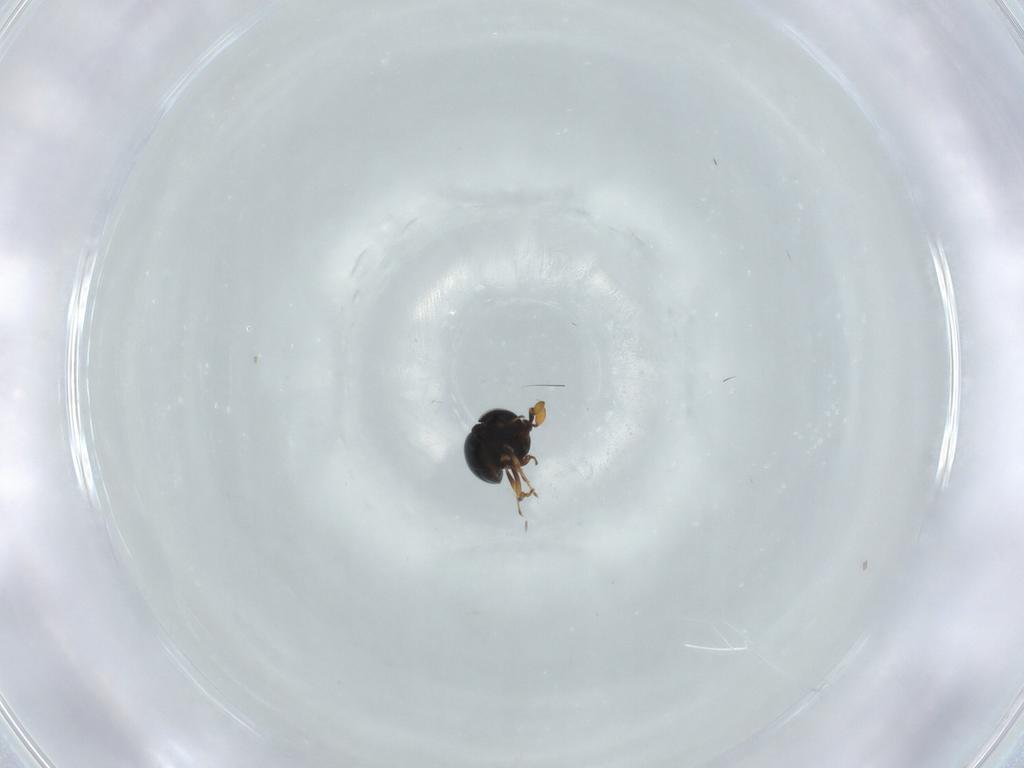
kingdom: Animalia
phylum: Arthropoda
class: Insecta
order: Hymenoptera
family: Scelionidae
